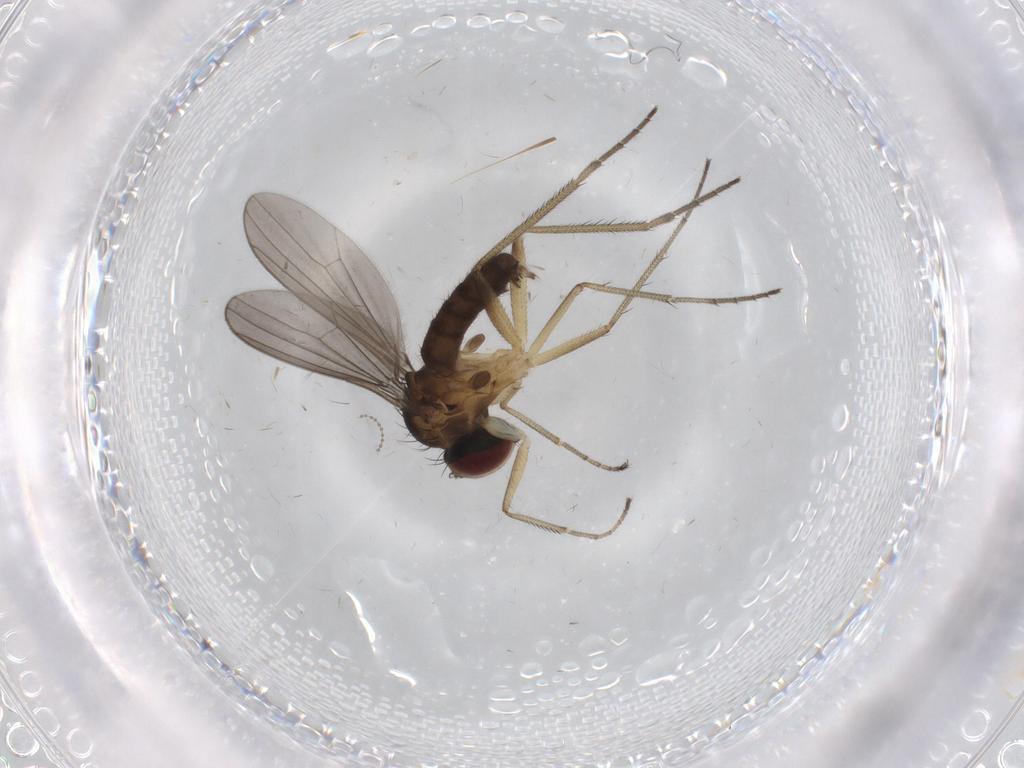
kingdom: Animalia
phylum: Arthropoda
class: Insecta
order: Diptera
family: Dolichopodidae
